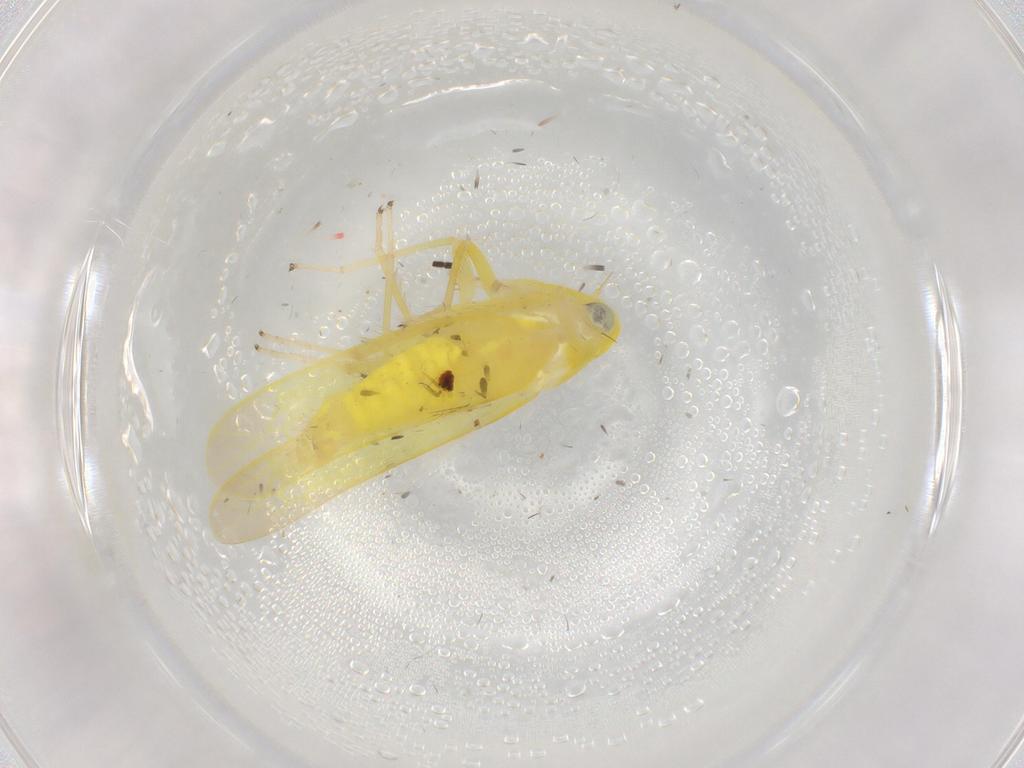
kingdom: Animalia
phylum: Arthropoda
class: Insecta
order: Hemiptera
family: Cicadellidae
